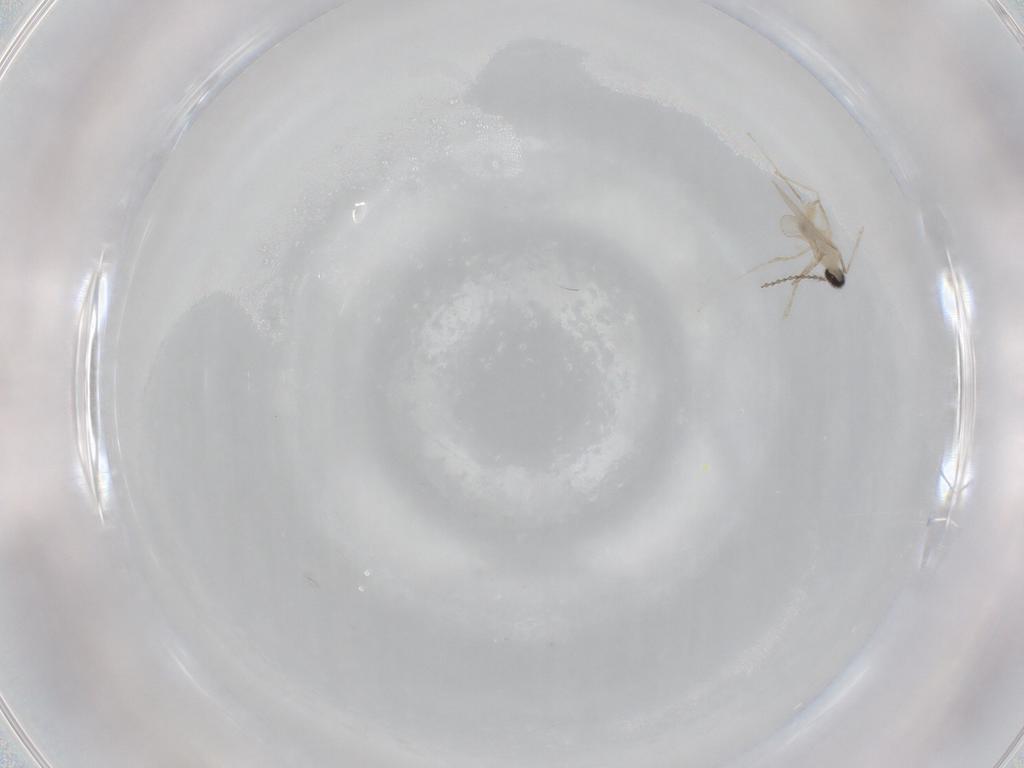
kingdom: Animalia
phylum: Arthropoda
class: Insecta
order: Diptera
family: Cecidomyiidae
